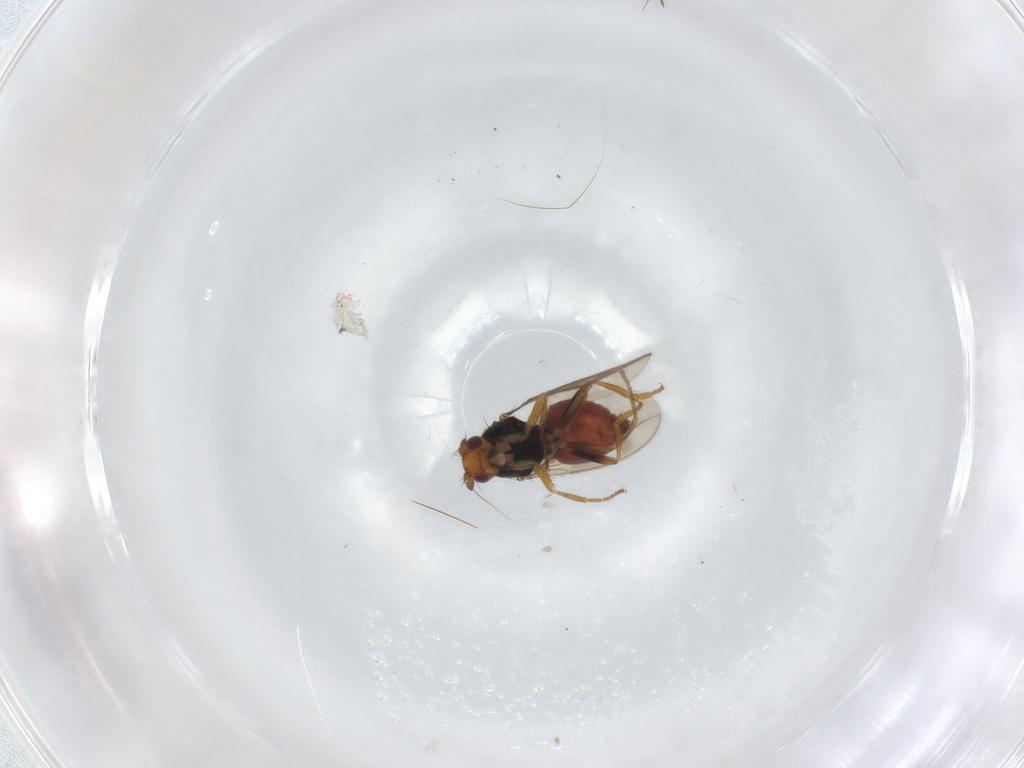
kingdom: Animalia
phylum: Arthropoda
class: Insecta
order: Diptera
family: Sphaeroceridae
